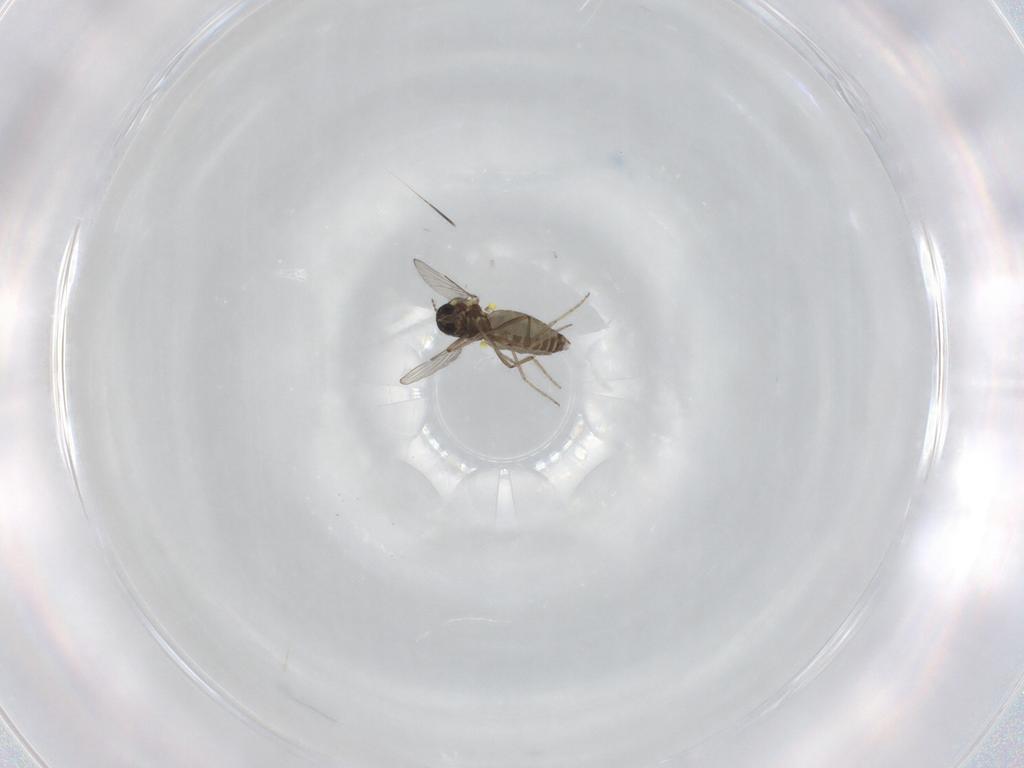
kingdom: Animalia
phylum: Arthropoda
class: Insecta
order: Diptera
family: Ceratopogonidae
